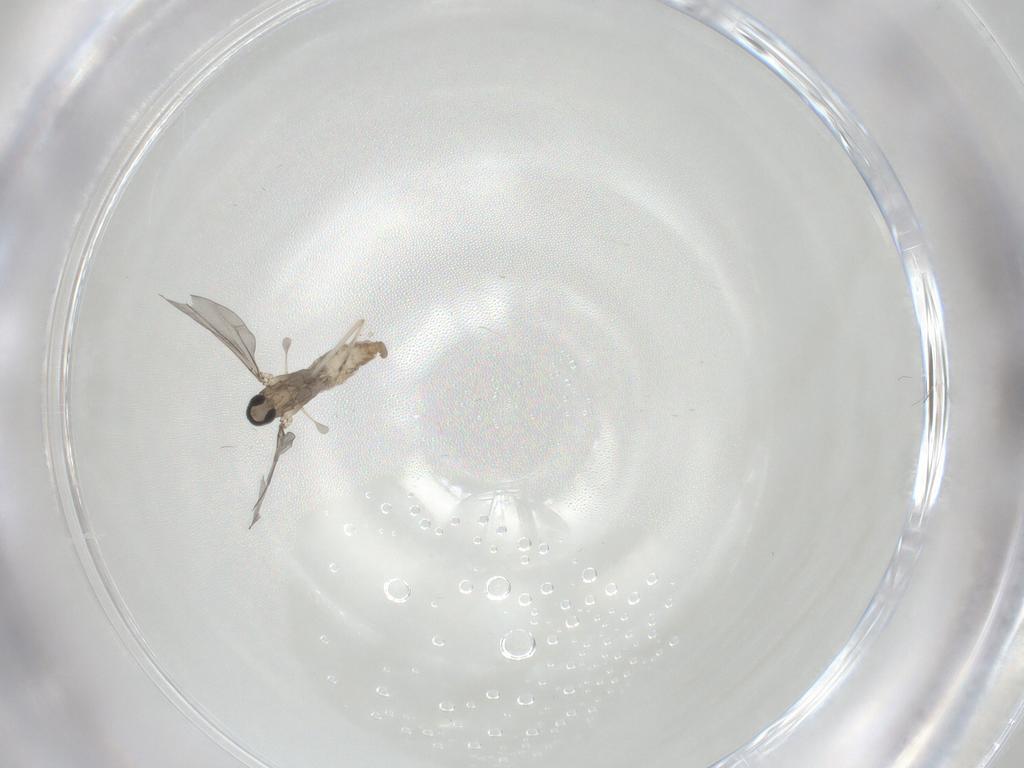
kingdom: Animalia
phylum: Arthropoda
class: Insecta
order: Diptera
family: Cecidomyiidae
